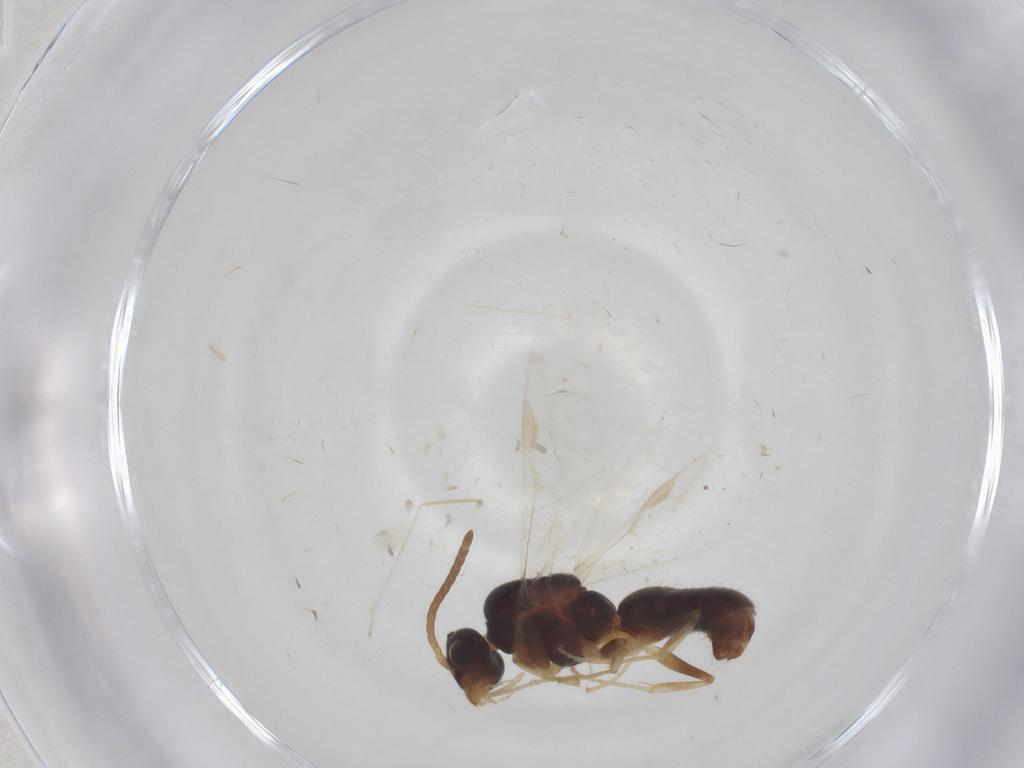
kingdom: Animalia
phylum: Arthropoda
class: Insecta
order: Hymenoptera
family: Formicidae
